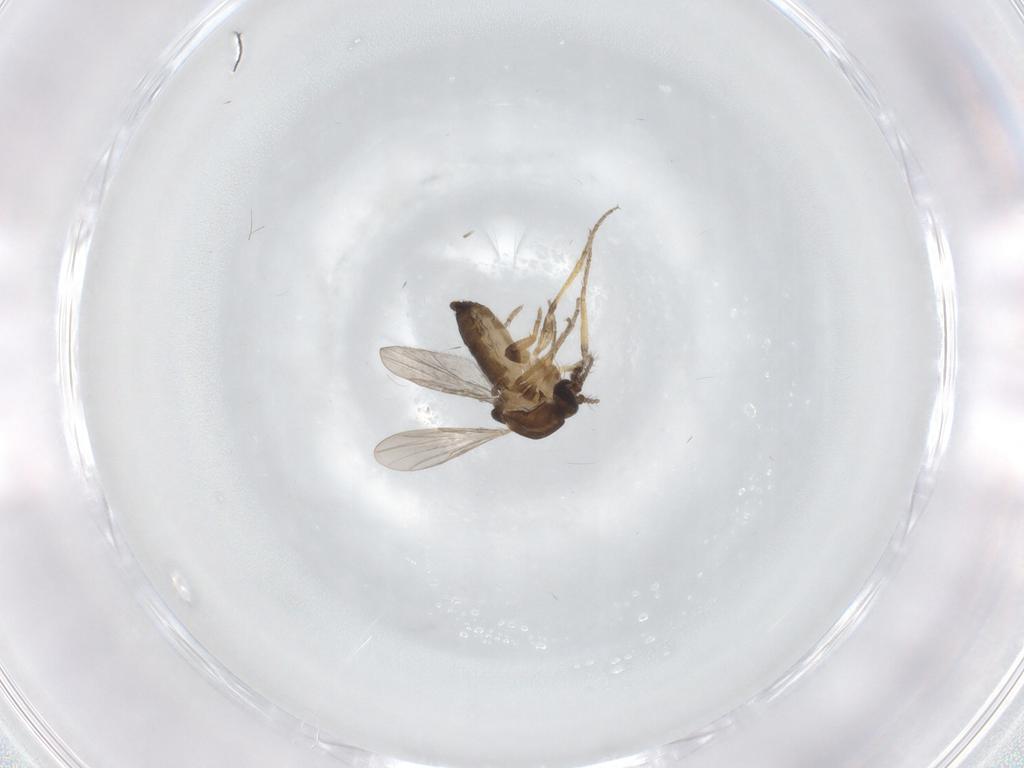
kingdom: Animalia
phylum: Arthropoda
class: Insecta
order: Diptera
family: Ceratopogonidae
